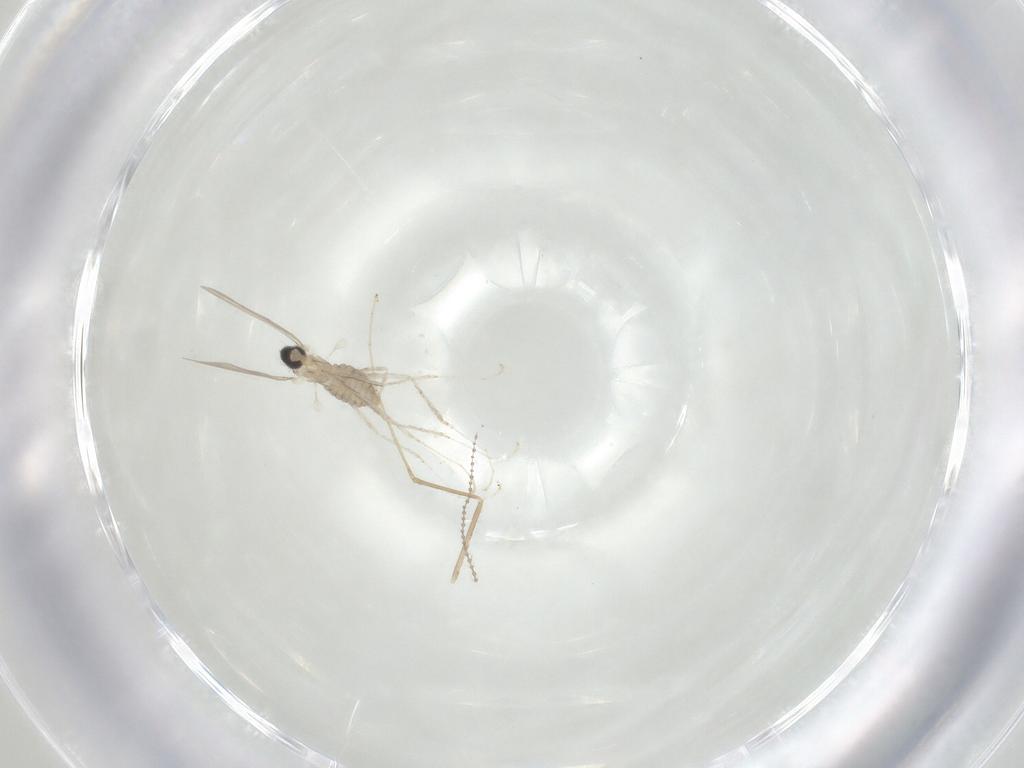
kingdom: Animalia
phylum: Arthropoda
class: Insecta
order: Diptera
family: Cecidomyiidae
